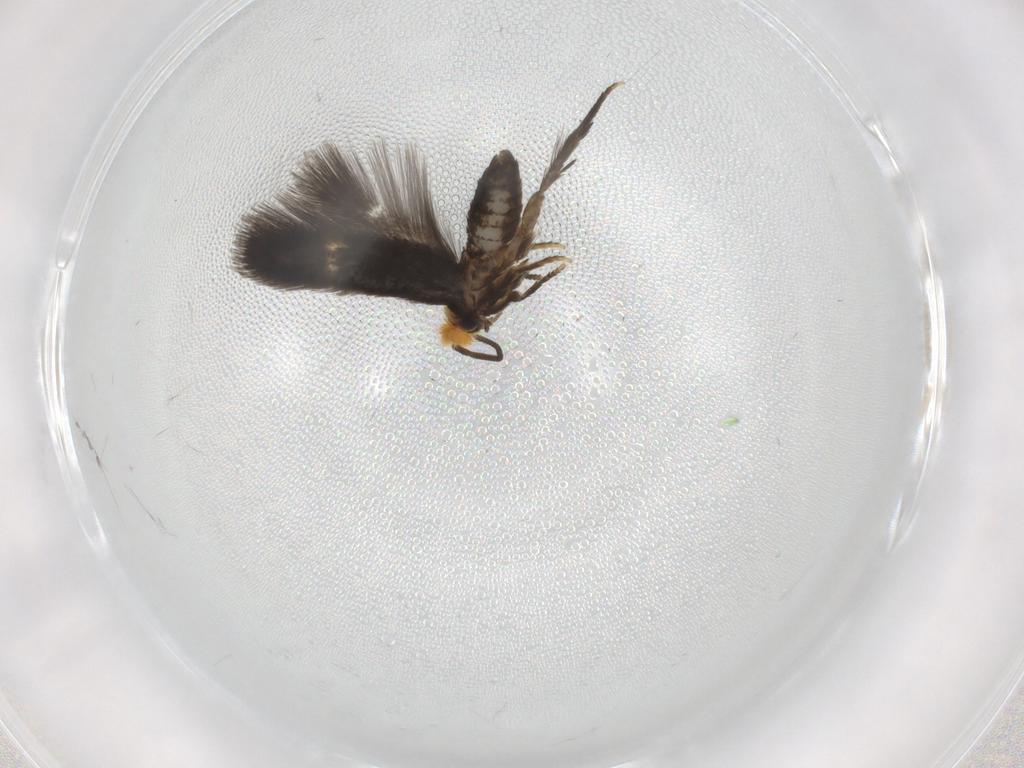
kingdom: Animalia
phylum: Arthropoda
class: Insecta
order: Lepidoptera
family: Nepticulidae
